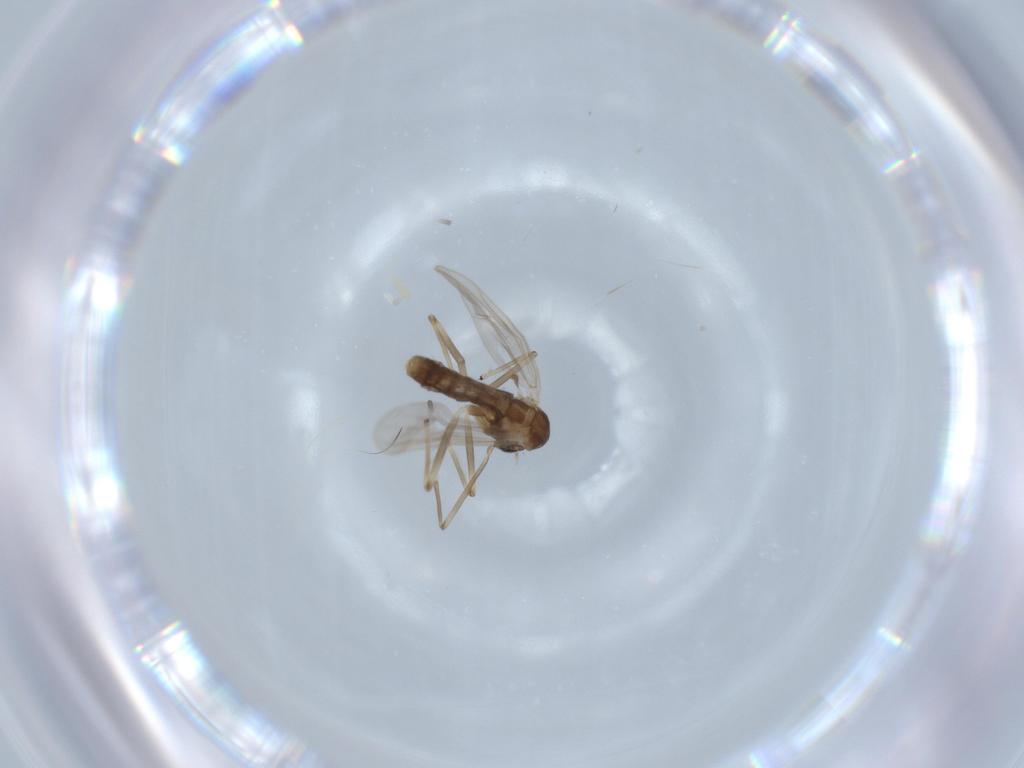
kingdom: Animalia
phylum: Arthropoda
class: Insecta
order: Diptera
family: Chironomidae
